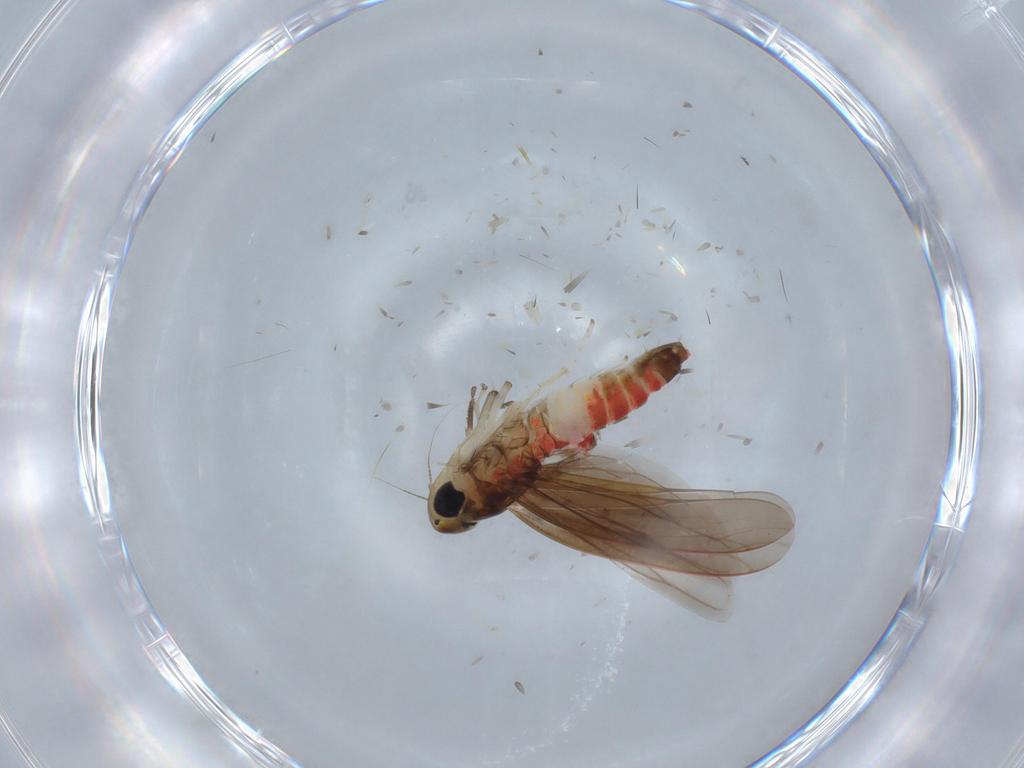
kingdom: Animalia
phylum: Arthropoda
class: Insecta
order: Hemiptera
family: Cicadellidae
